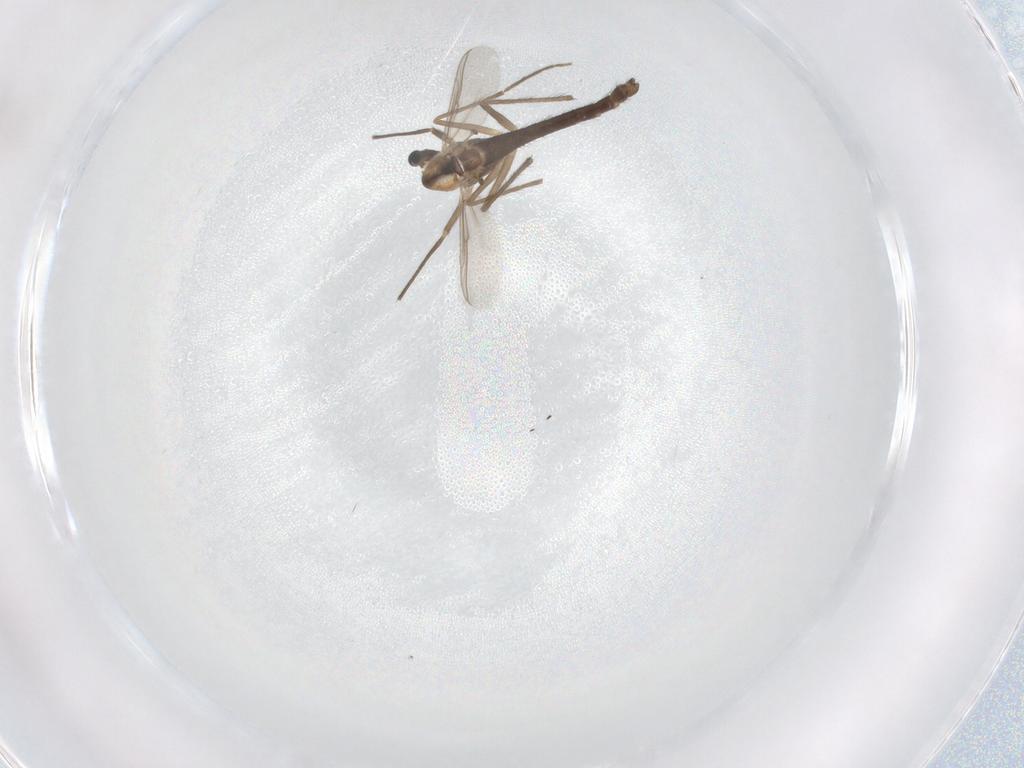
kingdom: Animalia
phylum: Arthropoda
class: Insecta
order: Diptera
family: Chironomidae
